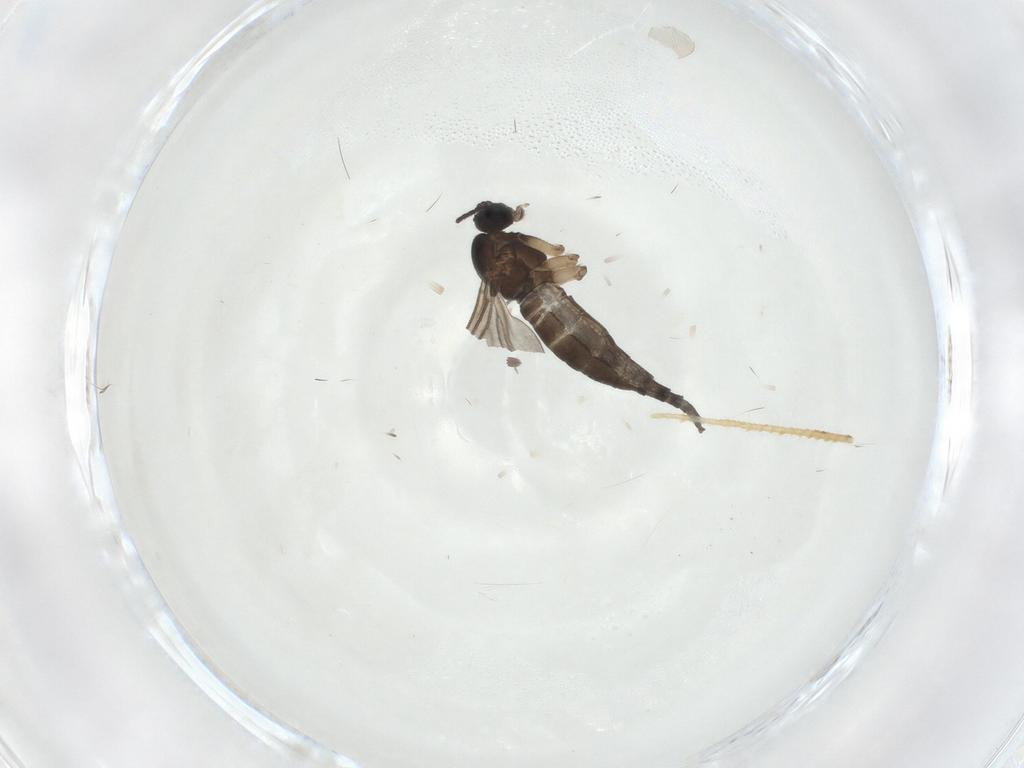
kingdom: Animalia
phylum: Arthropoda
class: Insecta
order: Diptera
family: Sciaridae
